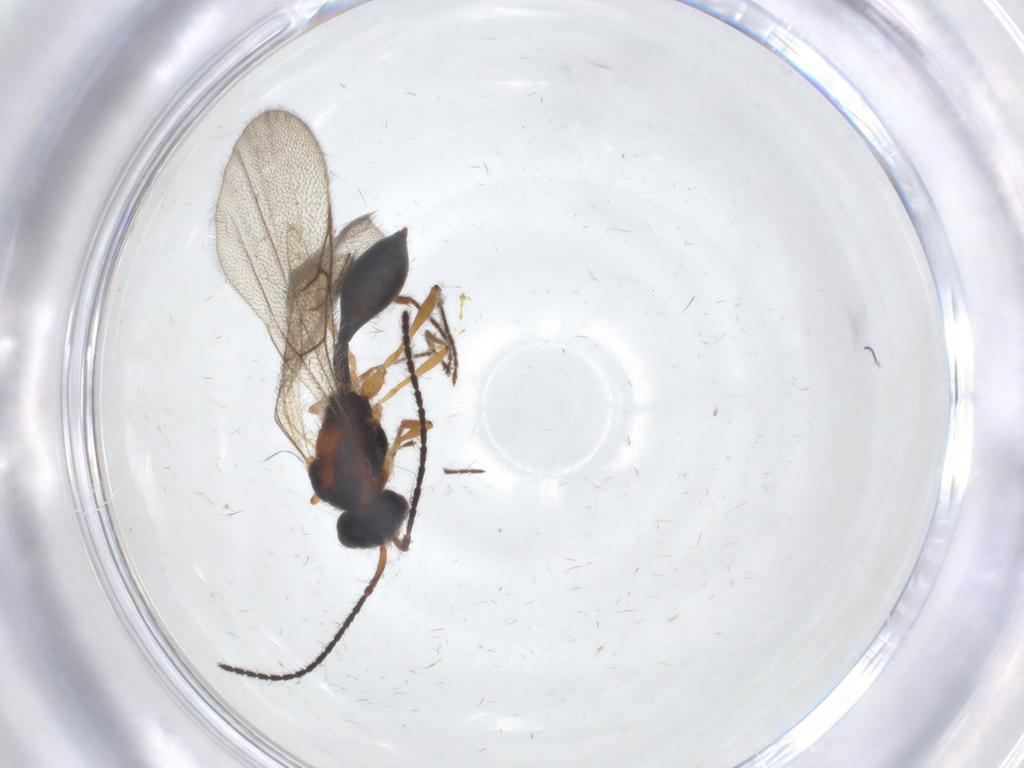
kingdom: Animalia
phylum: Arthropoda
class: Insecta
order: Hymenoptera
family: Diapriidae
